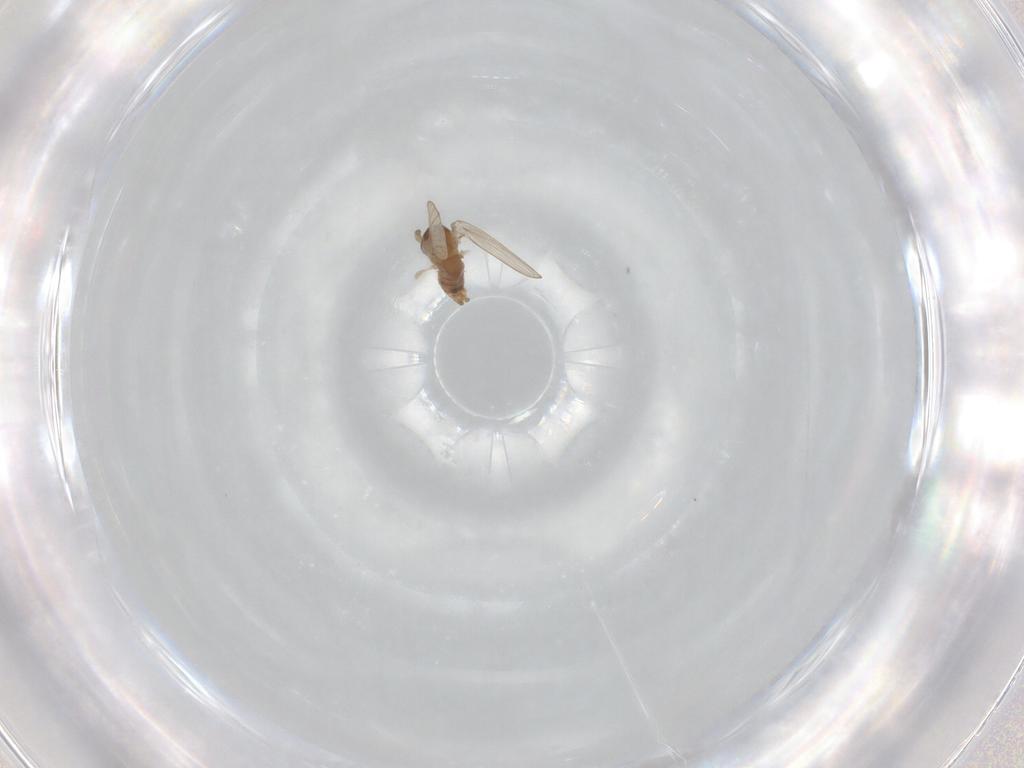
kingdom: Animalia
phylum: Arthropoda
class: Insecta
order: Diptera
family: Psychodidae
